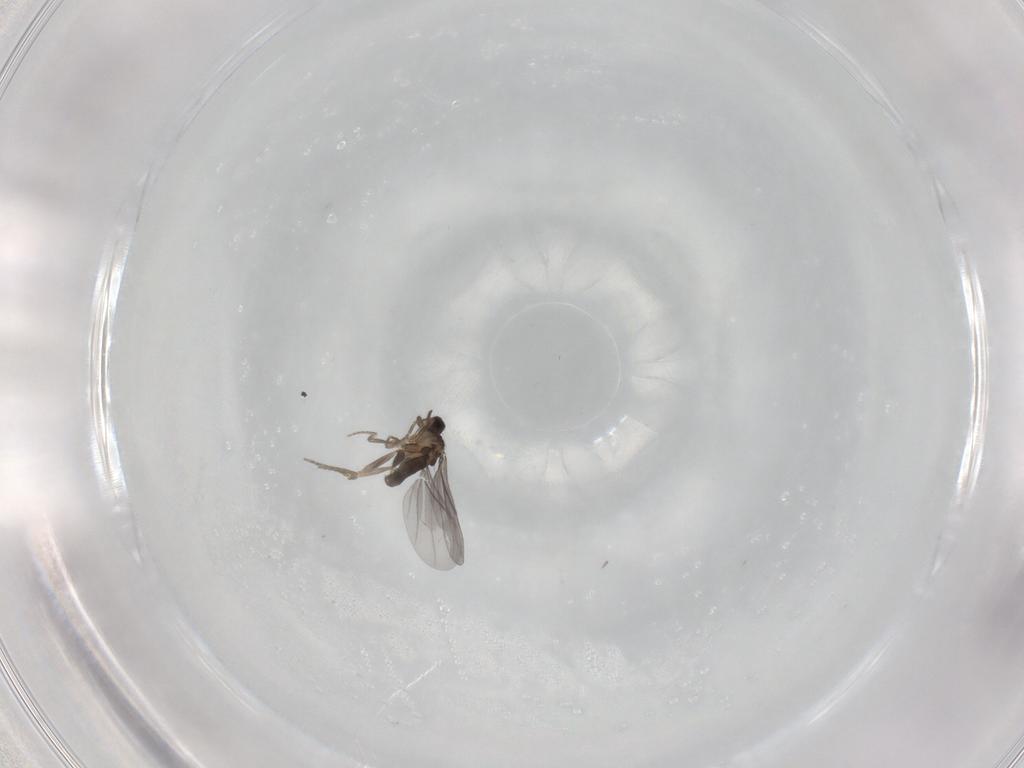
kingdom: Animalia
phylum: Arthropoda
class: Insecta
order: Diptera
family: Phoridae
